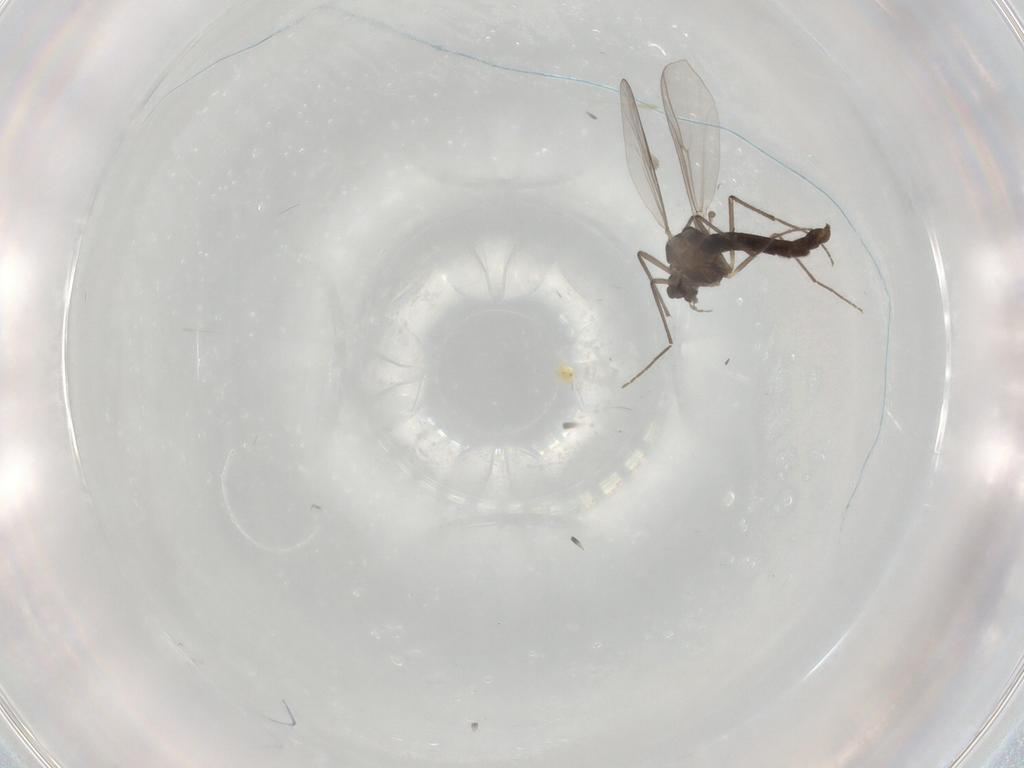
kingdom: Animalia
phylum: Arthropoda
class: Insecta
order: Diptera
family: Chironomidae
